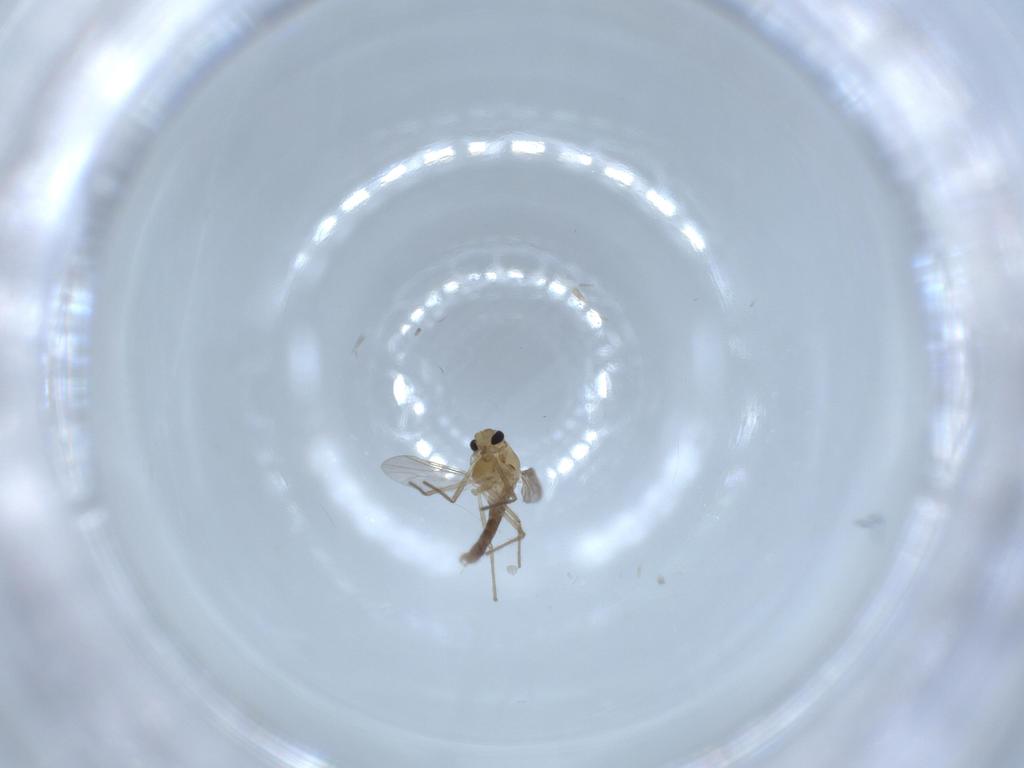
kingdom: Animalia
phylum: Arthropoda
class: Insecta
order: Diptera
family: Chironomidae
